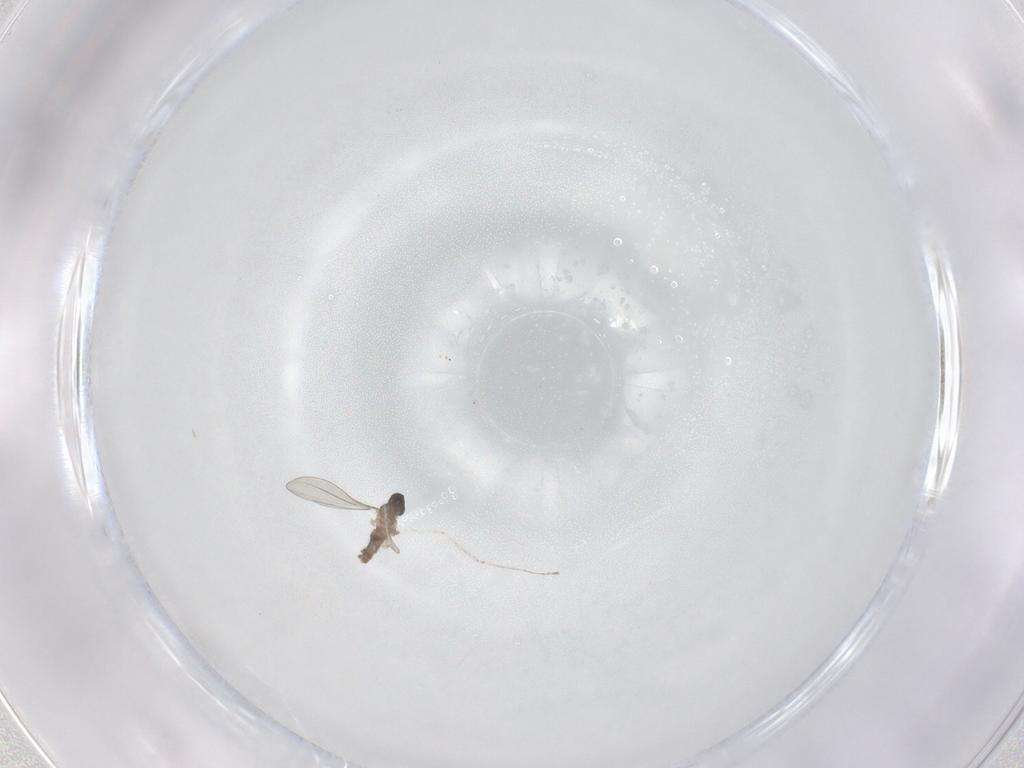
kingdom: Animalia
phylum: Arthropoda
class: Insecta
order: Diptera
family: Cecidomyiidae
